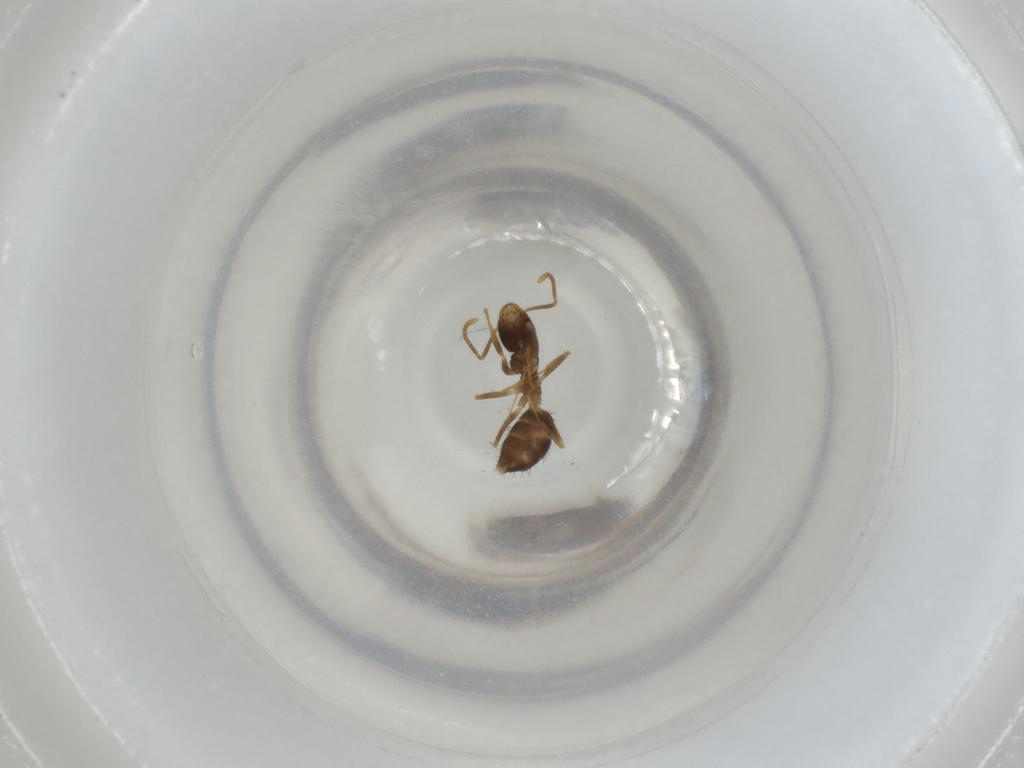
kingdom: Animalia
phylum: Arthropoda
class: Insecta
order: Hymenoptera
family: Formicidae
